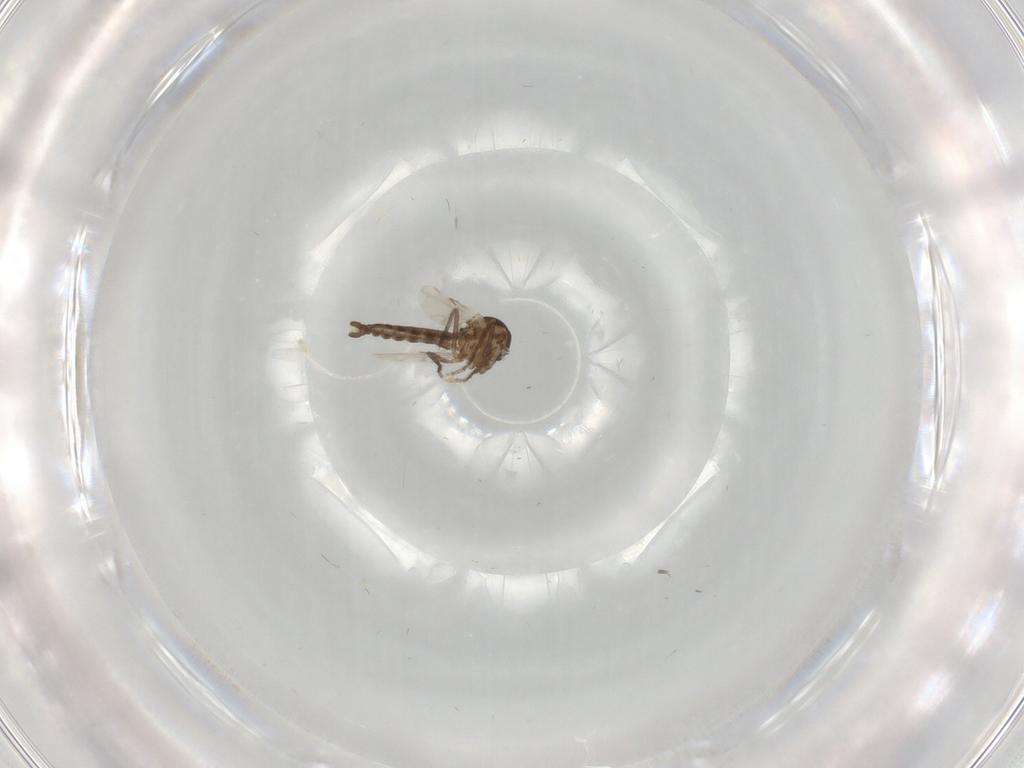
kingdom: Animalia
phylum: Arthropoda
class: Insecta
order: Diptera
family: Ceratopogonidae
